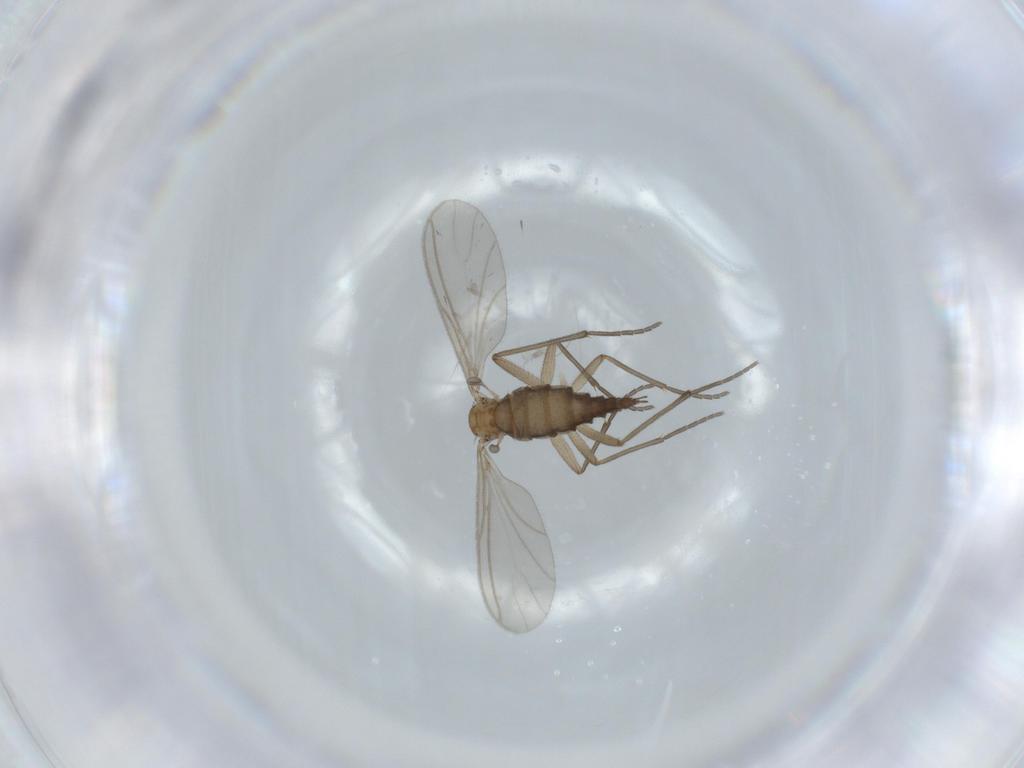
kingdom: Animalia
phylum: Arthropoda
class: Insecta
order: Diptera
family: Sciaridae
